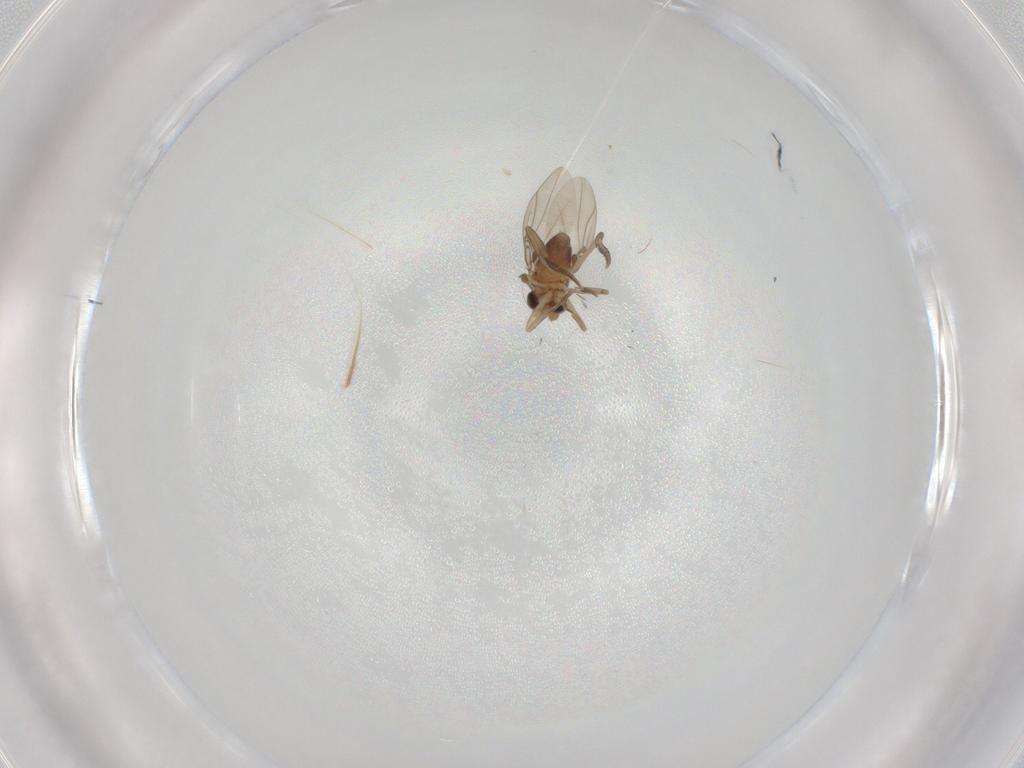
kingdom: Animalia
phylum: Arthropoda
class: Insecta
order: Diptera
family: Phoridae
